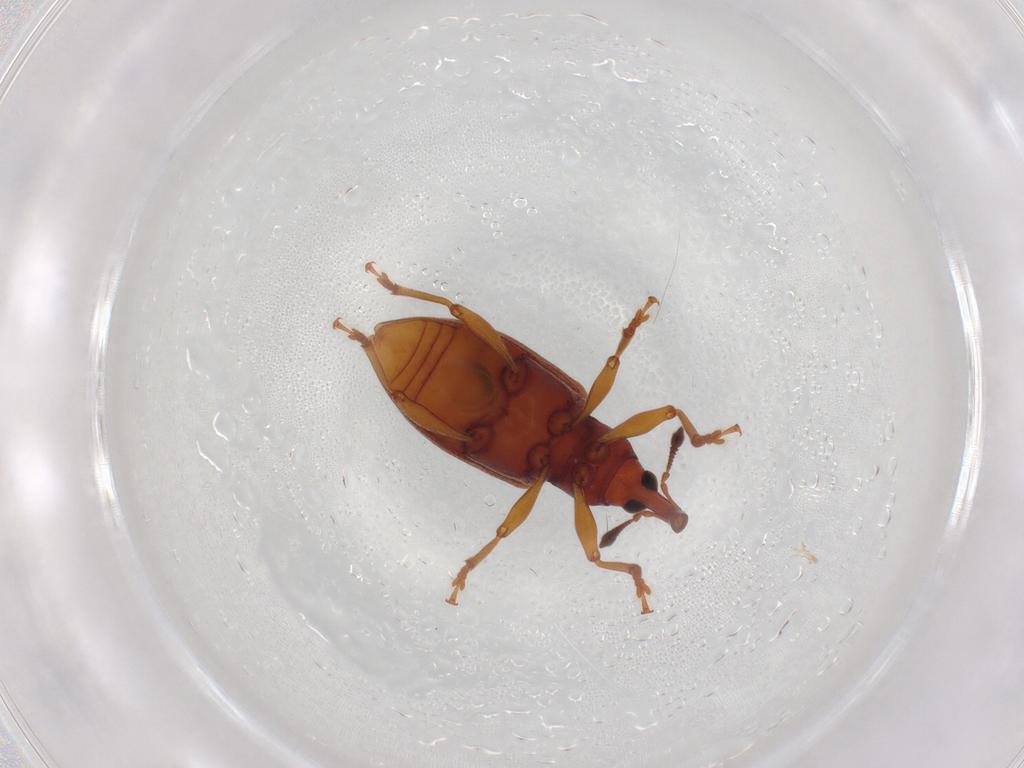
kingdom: Animalia
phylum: Arthropoda
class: Insecta
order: Coleoptera
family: Curculionidae
